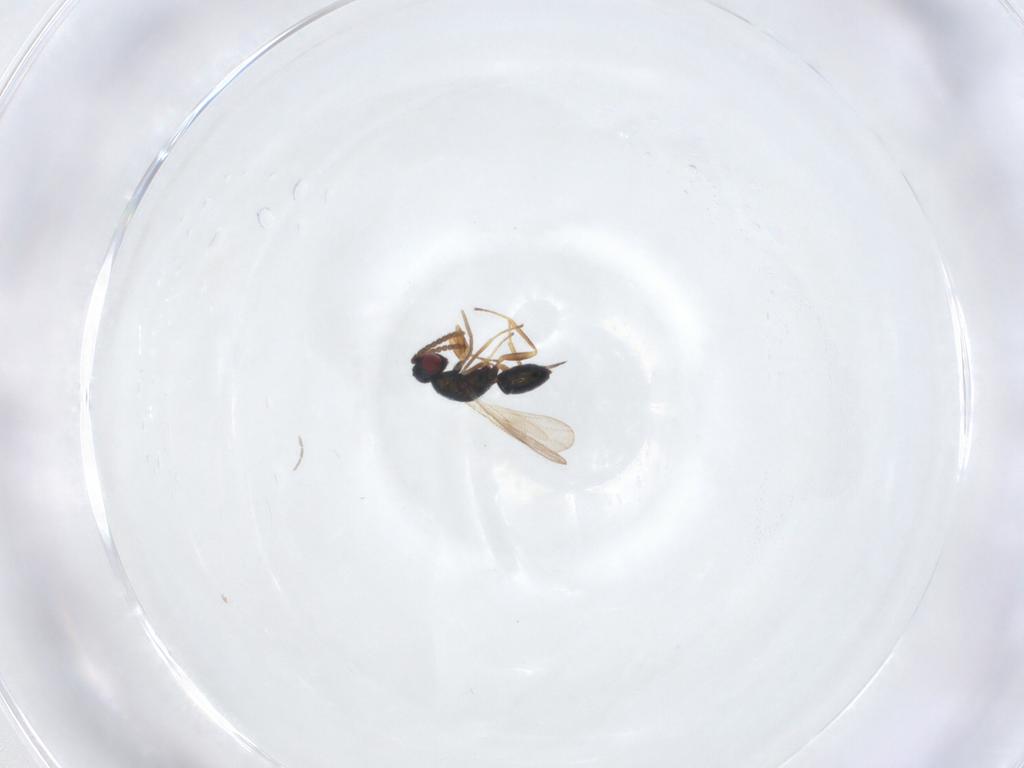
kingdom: Animalia
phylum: Arthropoda
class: Insecta
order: Hymenoptera
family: Tetracampidae
